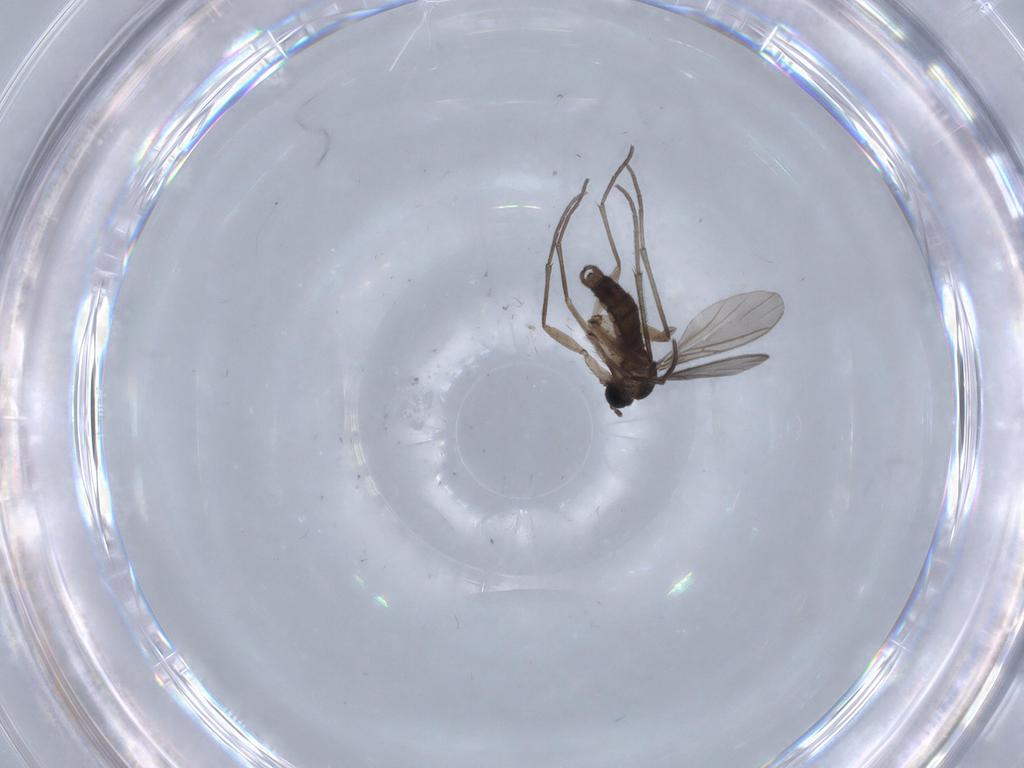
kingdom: Animalia
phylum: Arthropoda
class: Insecta
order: Diptera
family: Sciaridae
